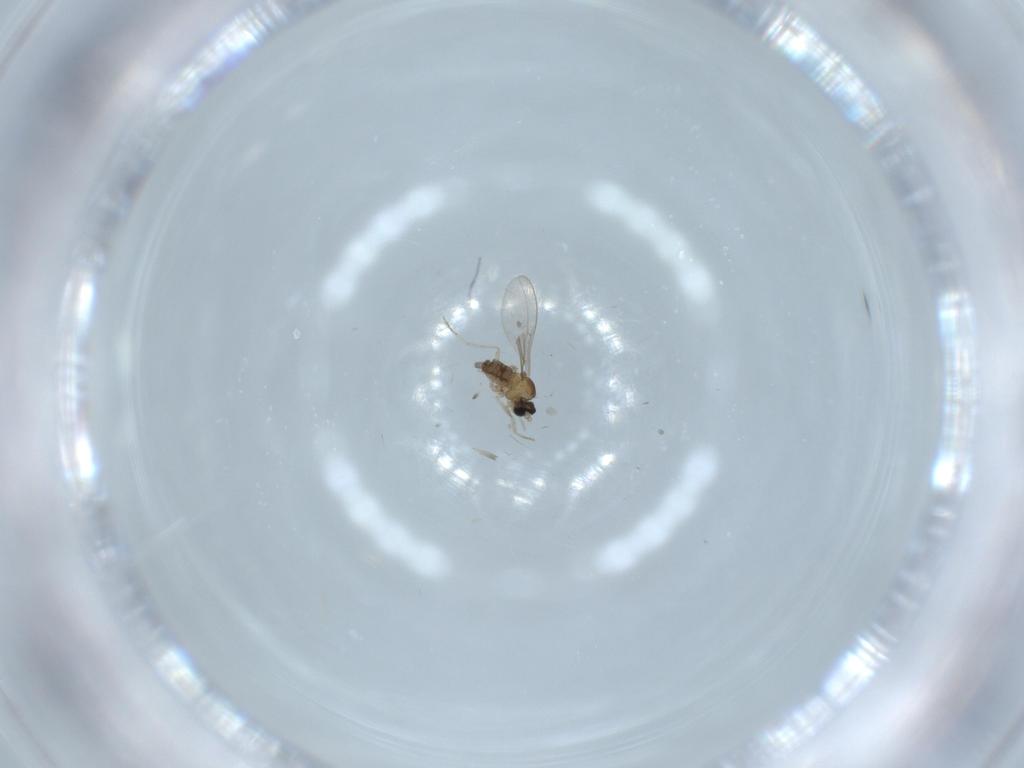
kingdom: Animalia
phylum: Arthropoda
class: Insecta
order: Diptera
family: Cecidomyiidae
